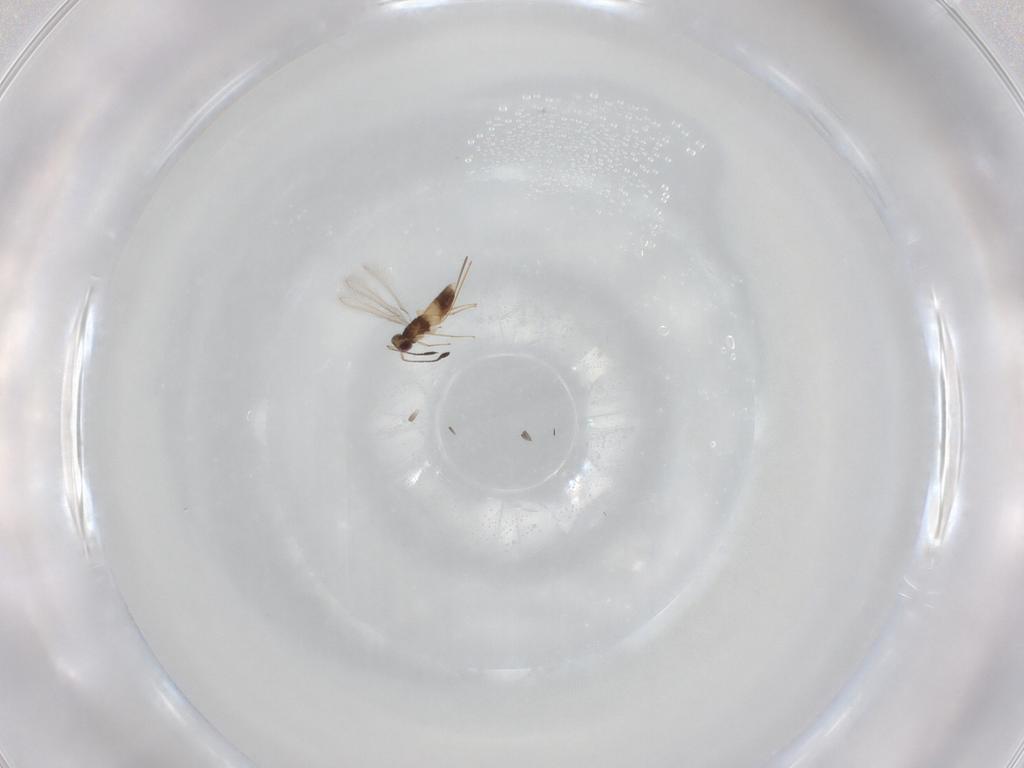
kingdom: Animalia
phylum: Arthropoda
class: Insecta
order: Hymenoptera
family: Mymaridae
